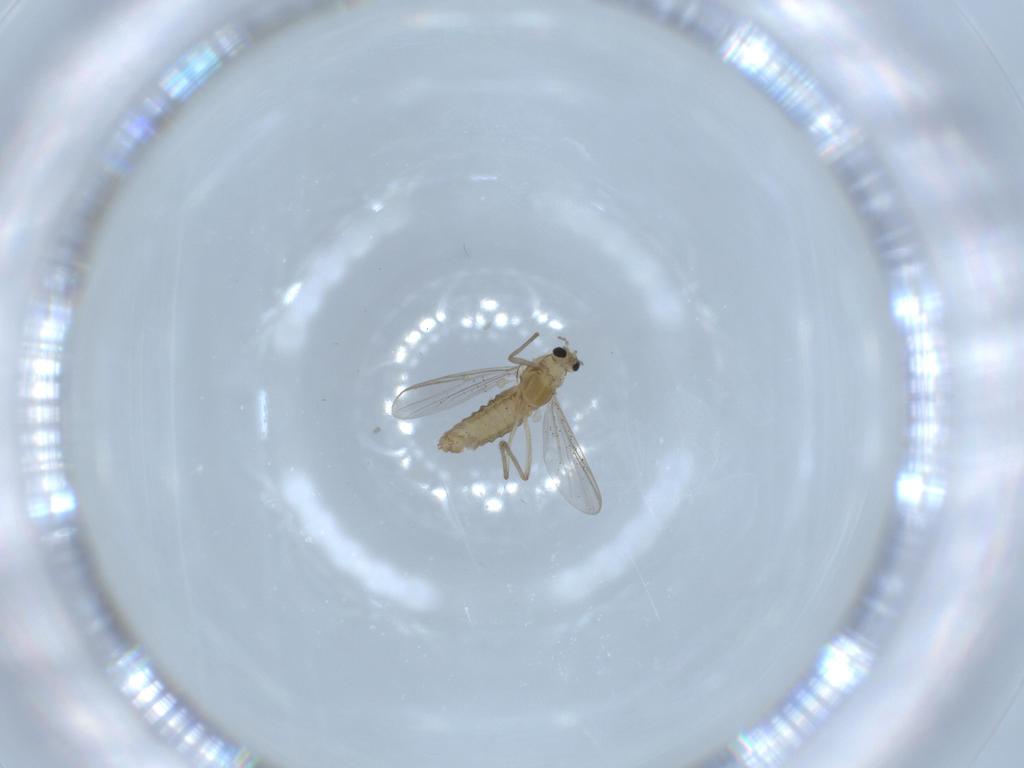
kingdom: Animalia
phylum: Arthropoda
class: Insecta
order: Diptera
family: Chironomidae
